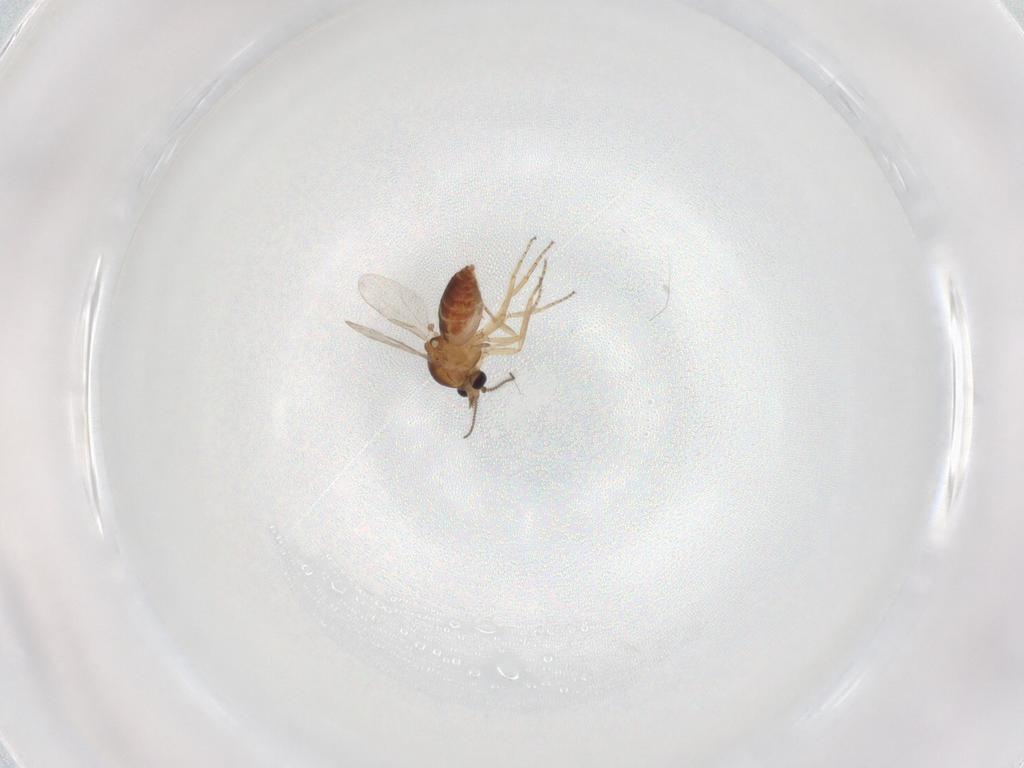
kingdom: Animalia
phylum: Arthropoda
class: Insecta
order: Diptera
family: Ceratopogonidae
